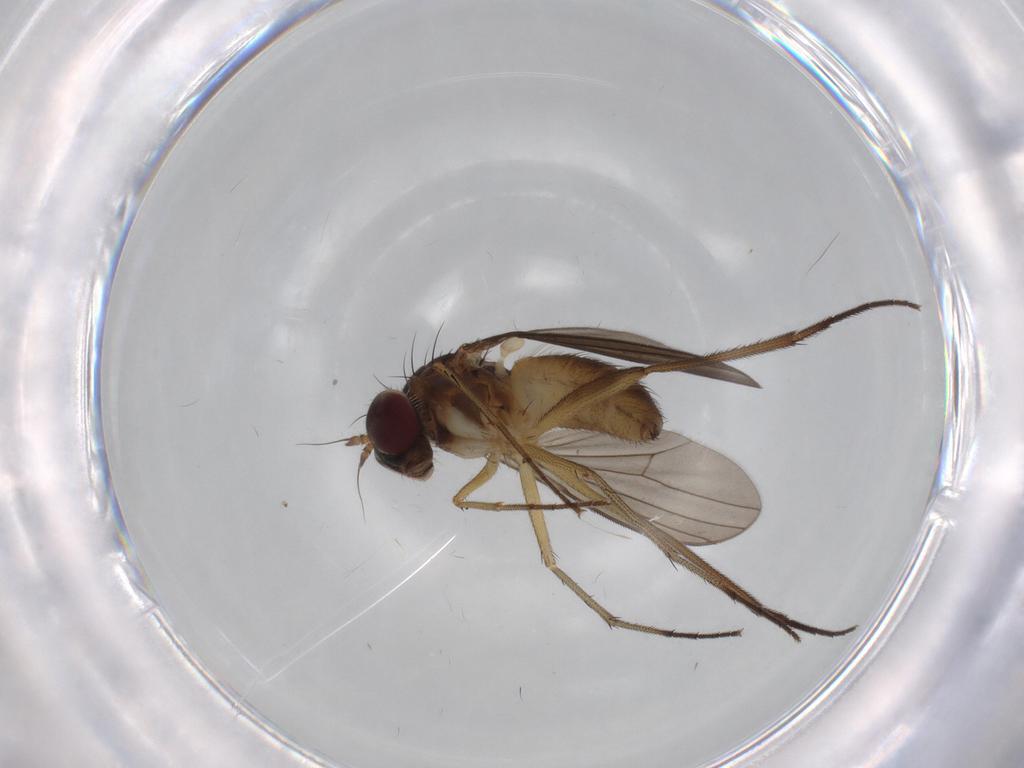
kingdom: Animalia
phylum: Arthropoda
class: Insecta
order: Diptera
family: Dolichopodidae
